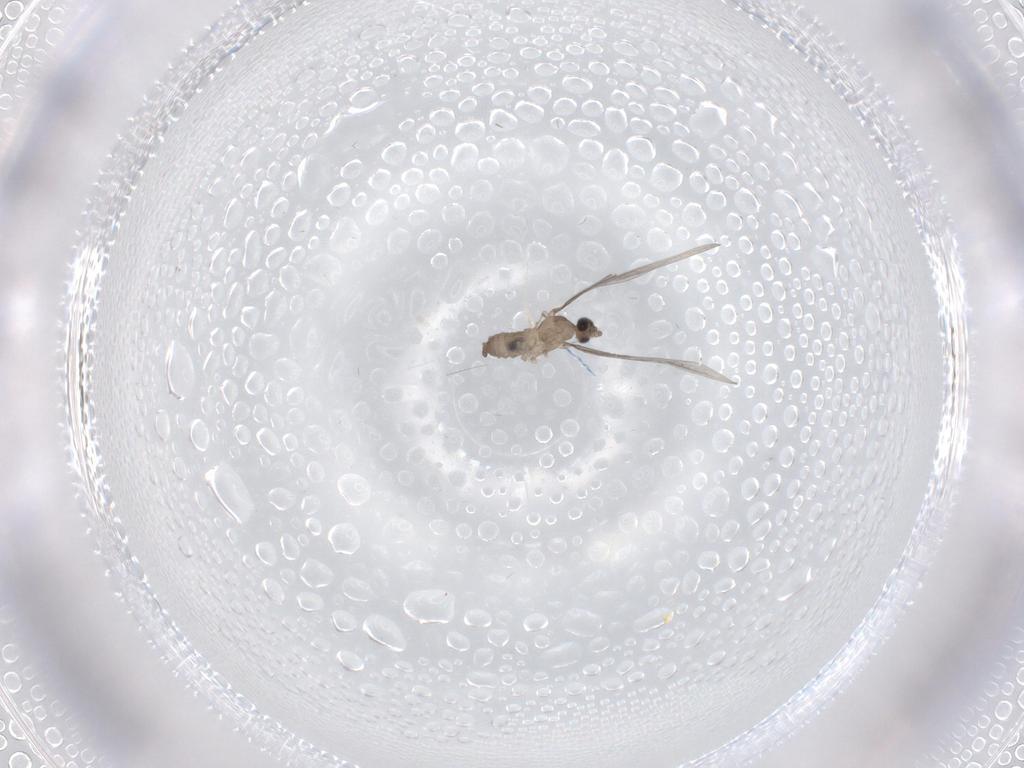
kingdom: Animalia
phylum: Arthropoda
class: Insecta
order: Diptera
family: Cecidomyiidae
